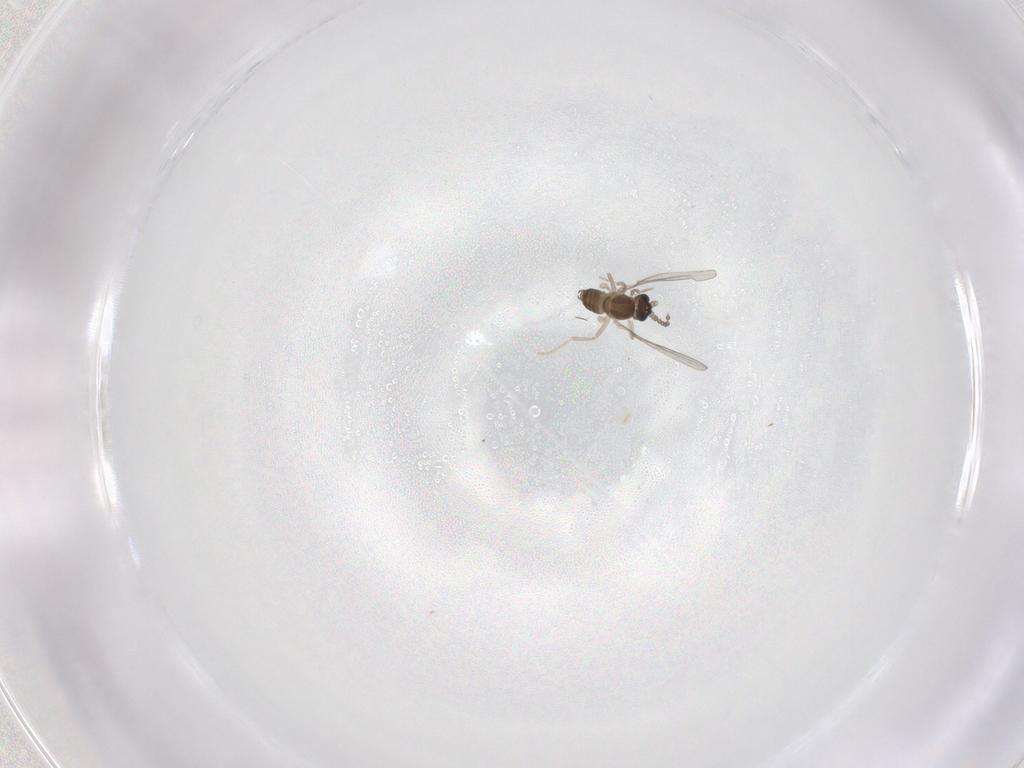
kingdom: Animalia
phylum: Arthropoda
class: Insecta
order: Diptera
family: Cecidomyiidae
